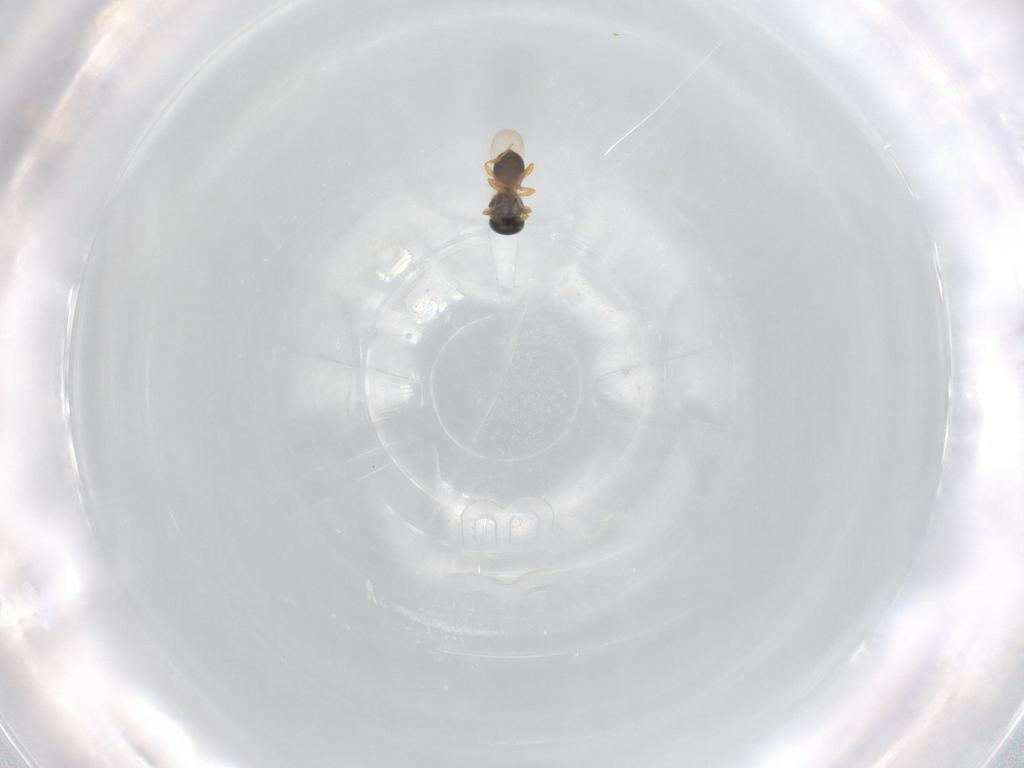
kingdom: Animalia
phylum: Arthropoda
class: Insecta
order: Hymenoptera
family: Platygastridae
